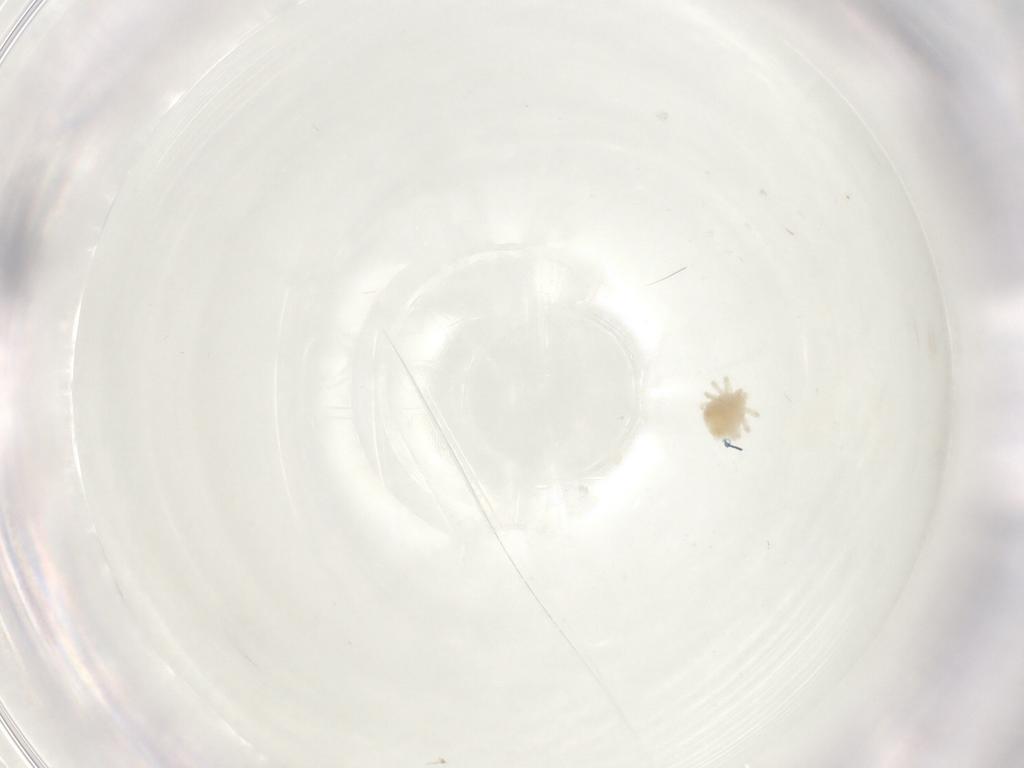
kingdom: Animalia
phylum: Arthropoda
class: Arachnida
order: Trombidiformes
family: Anystidae
